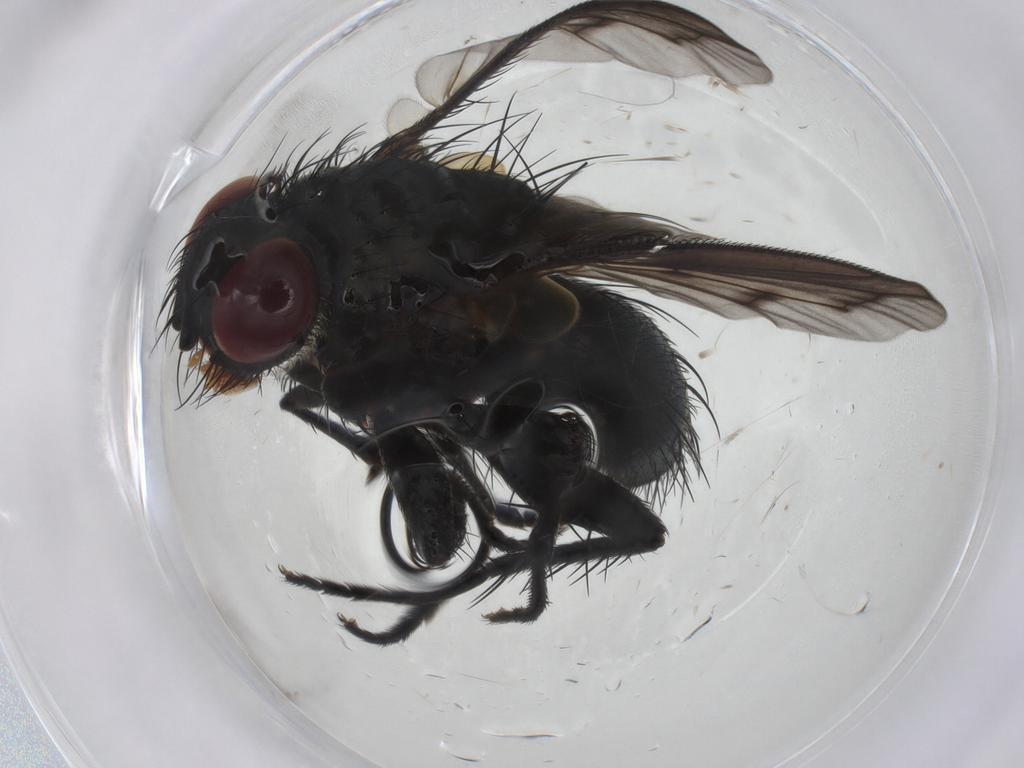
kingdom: Animalia
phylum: Arthropoda
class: Insecta
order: Diptera
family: Tachinidae
